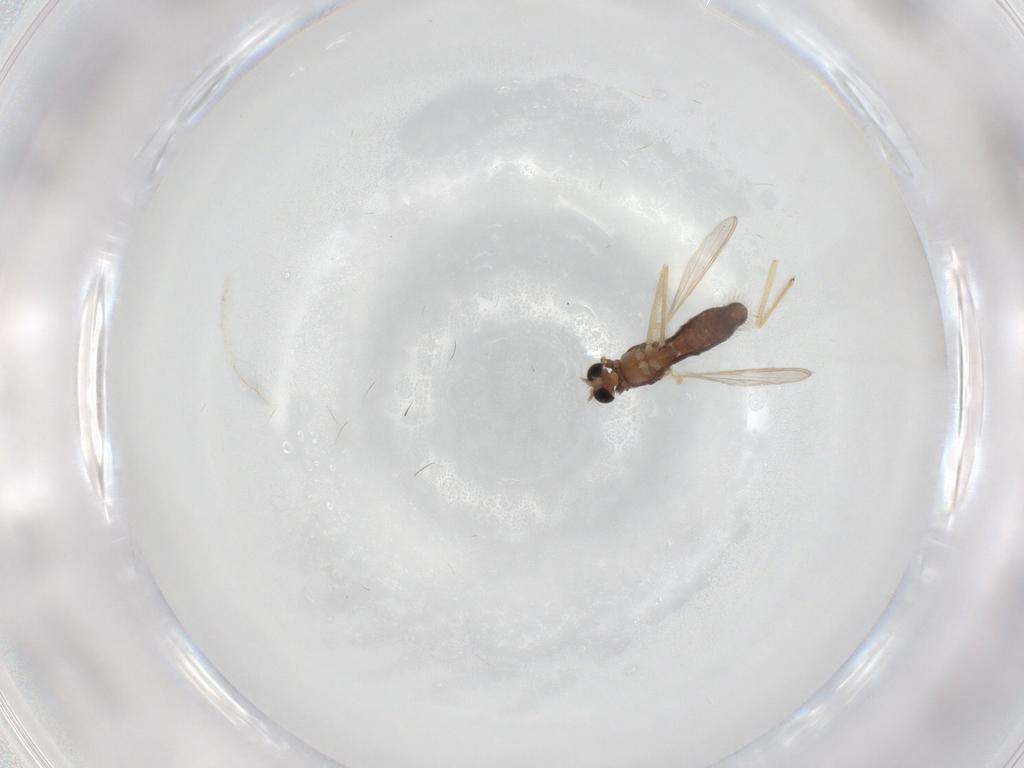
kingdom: Animalia
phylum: Arthropoda
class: Insecta
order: Diptera
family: Chironomidae
